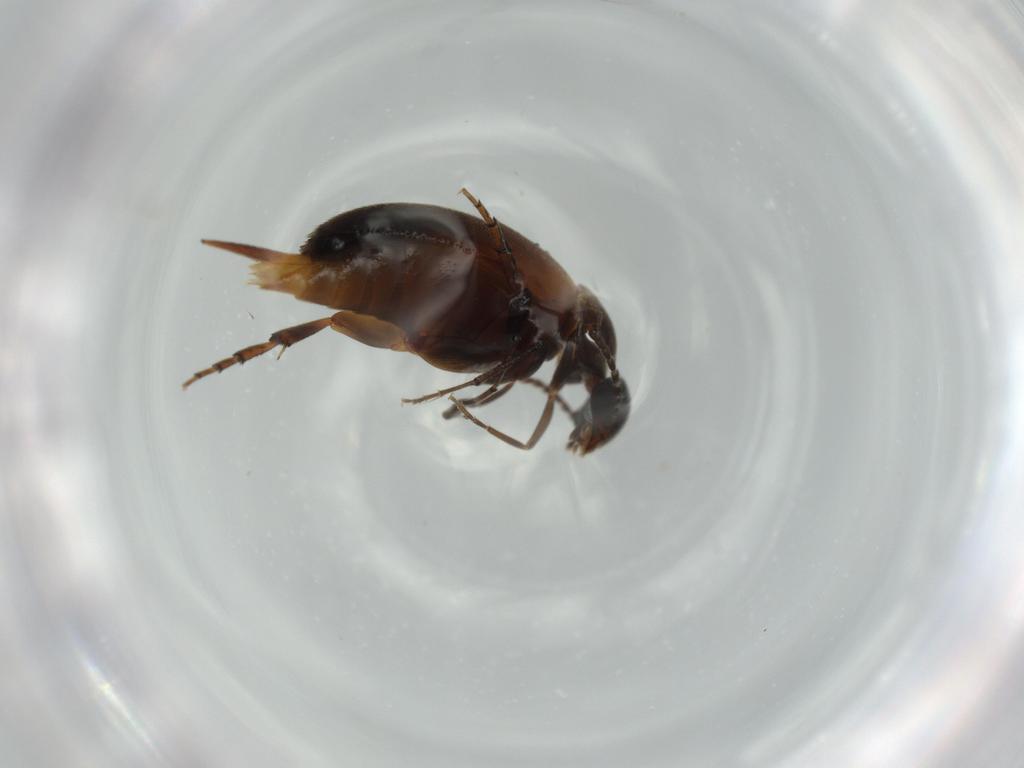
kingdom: Animalia
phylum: Arthropoda
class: Insecta
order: Coleoptera
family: Mordellidae
